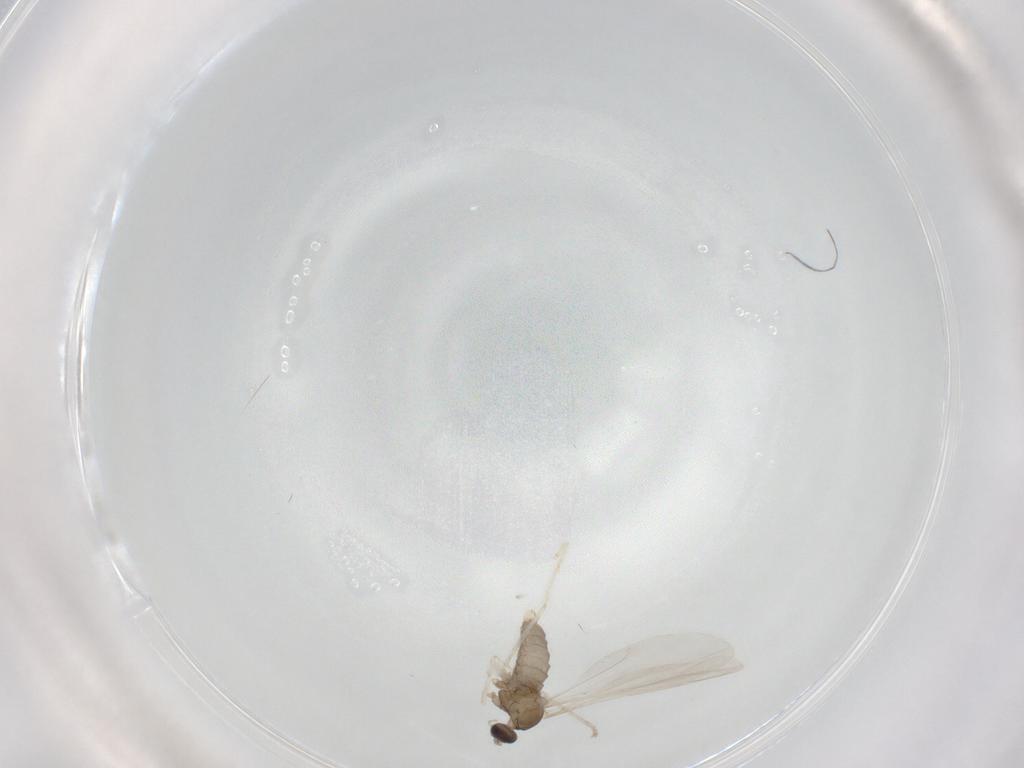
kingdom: Animalia
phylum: Arthropoda
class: Insecta
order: Diptera
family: Cecidomyiidae
